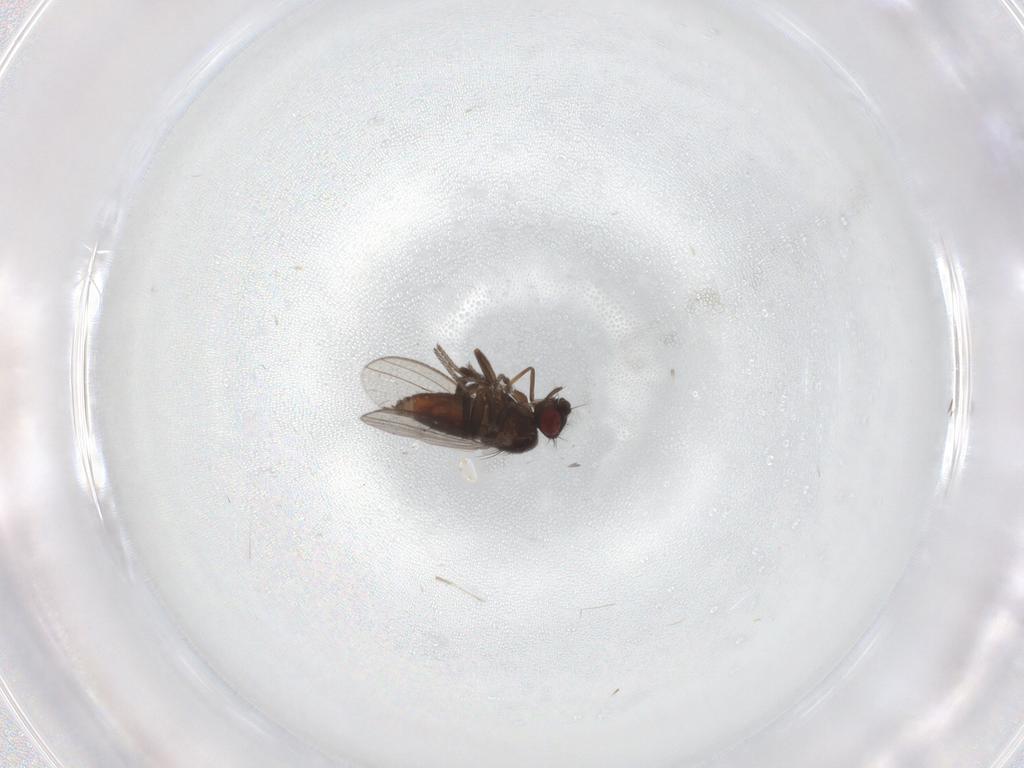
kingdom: Animalia
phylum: Arthropoda
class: Insecta
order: Diptera
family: Milichiidae
